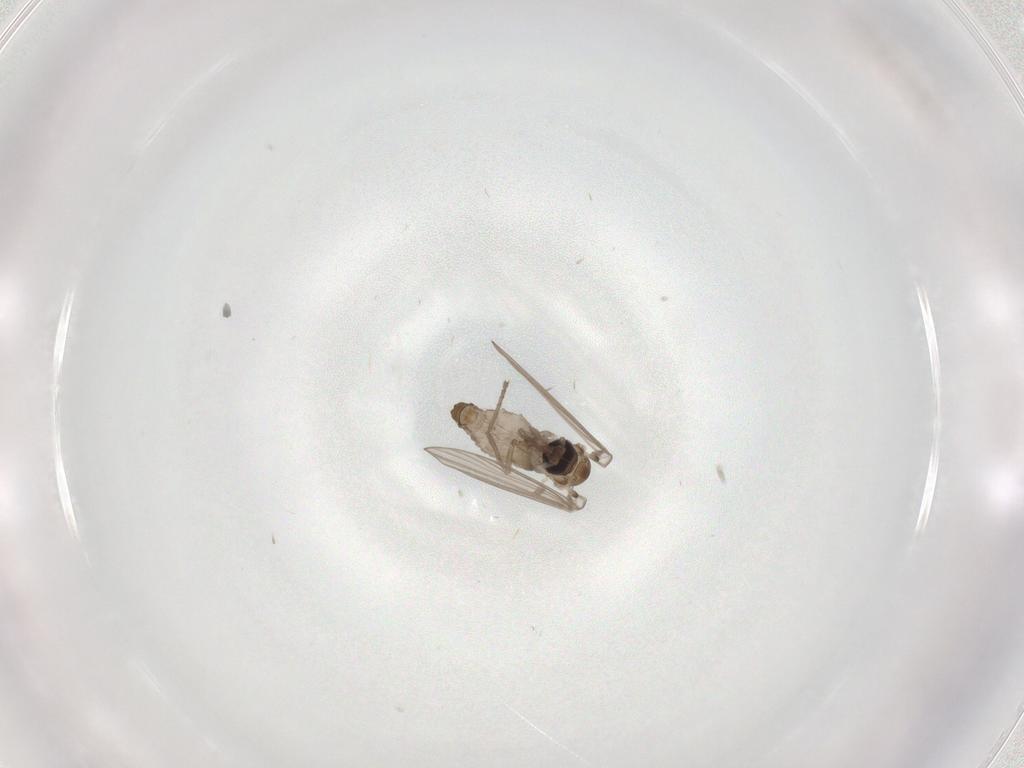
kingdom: Animalia
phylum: Arthropoda
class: Insecta
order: Diptera
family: Psychodidae
